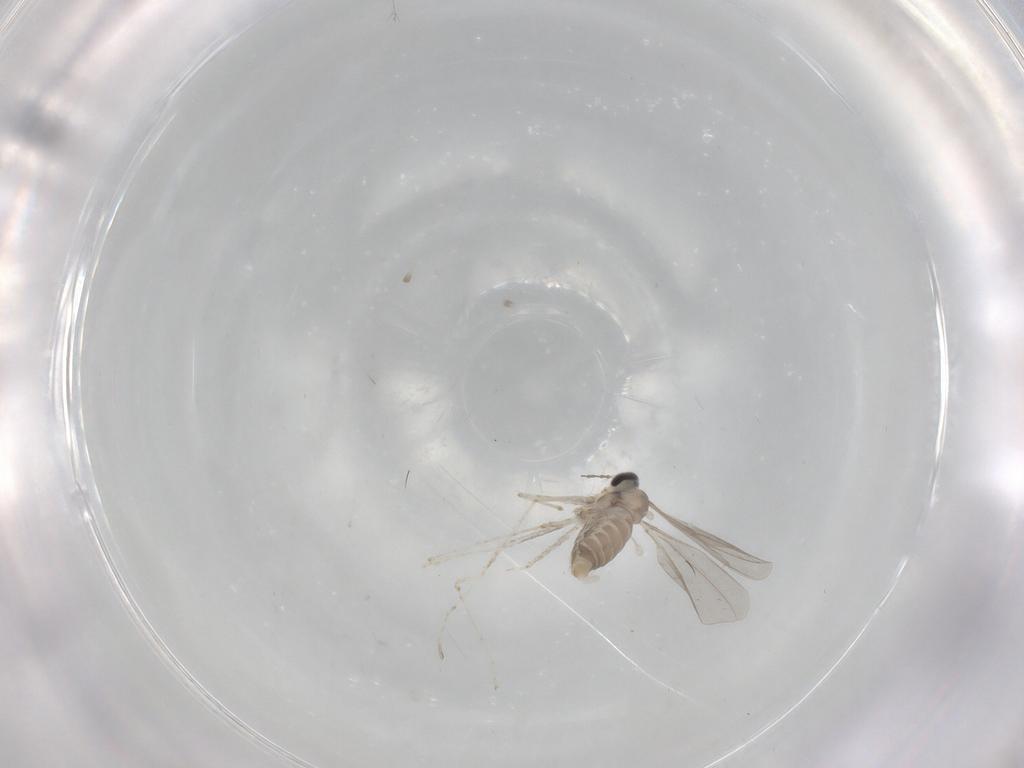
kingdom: Animalia
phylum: Arthropoda
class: Insecta
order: Diptera
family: Cecidomyiidae
